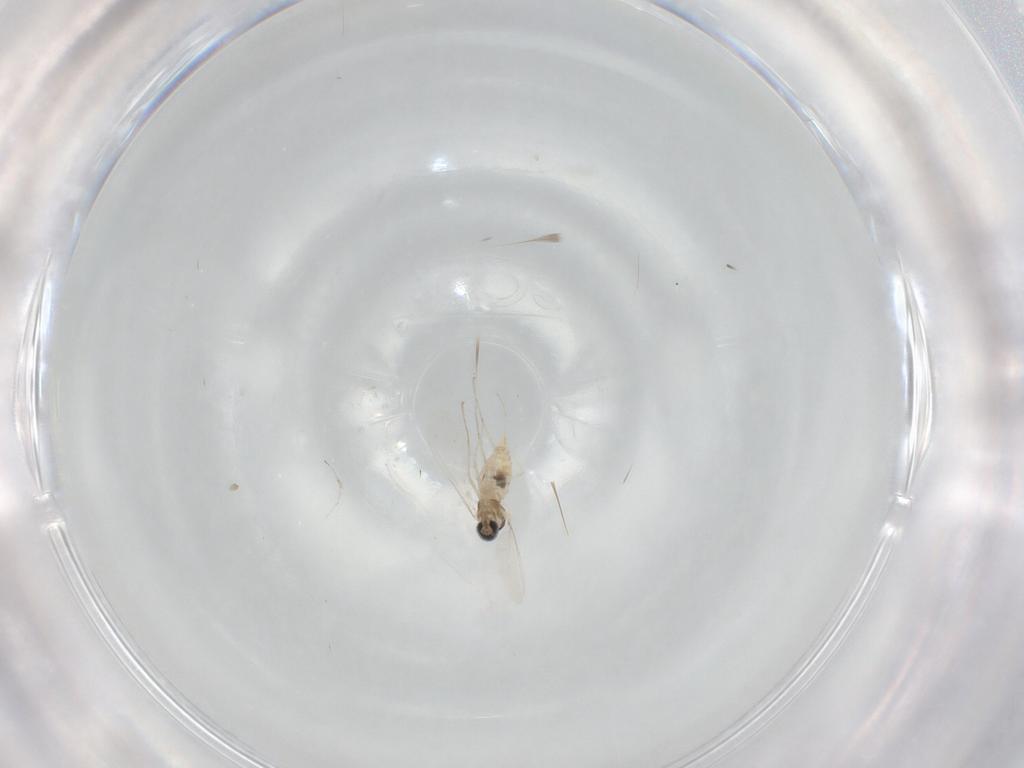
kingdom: Animalia
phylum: Arthropoda
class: Insecta
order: Diptera
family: Cecidomyiidae
